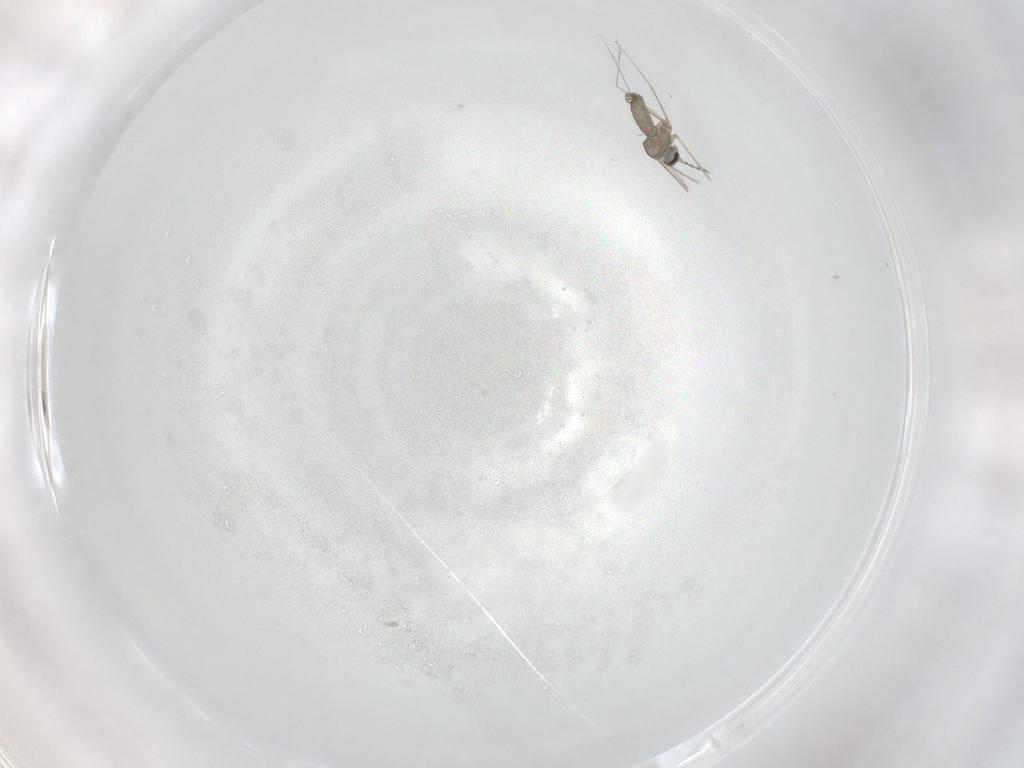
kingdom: Animalia
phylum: Arthropoda
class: Insecta
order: Diptera
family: Cecidomyiidae
